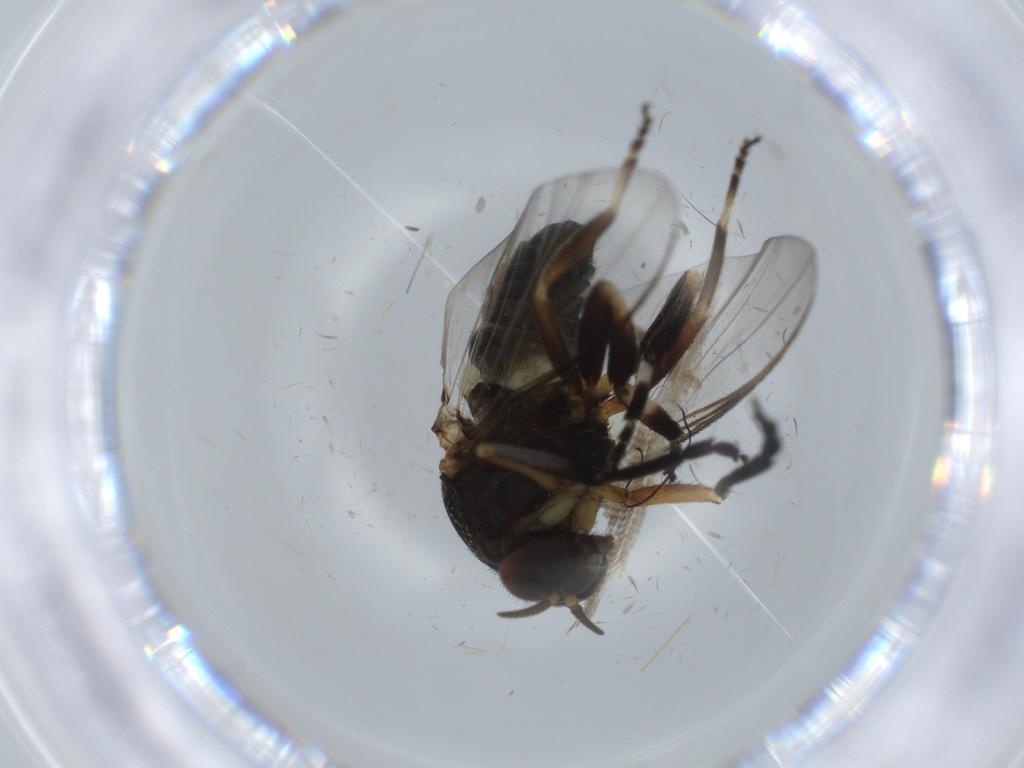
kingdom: Animalia
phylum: Arthropoda
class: Insecta
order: Diptera
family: Phoridae
